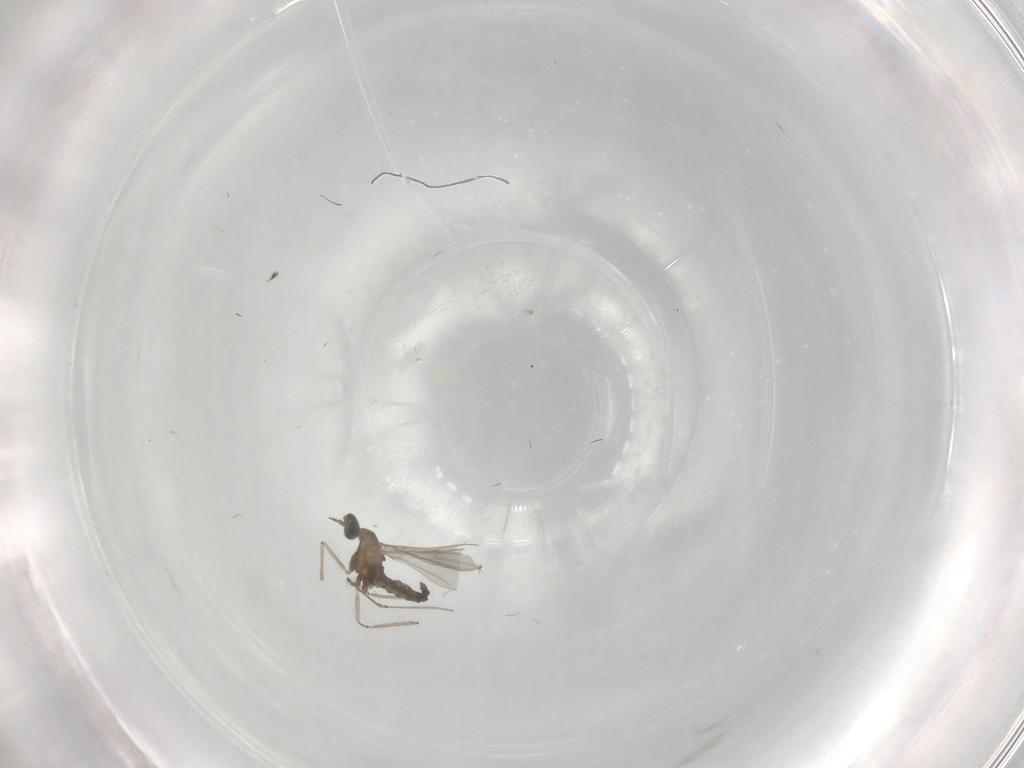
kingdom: Animalia
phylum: Arthropoda
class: Insecta
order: Diptera
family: Cecidomyiidae
